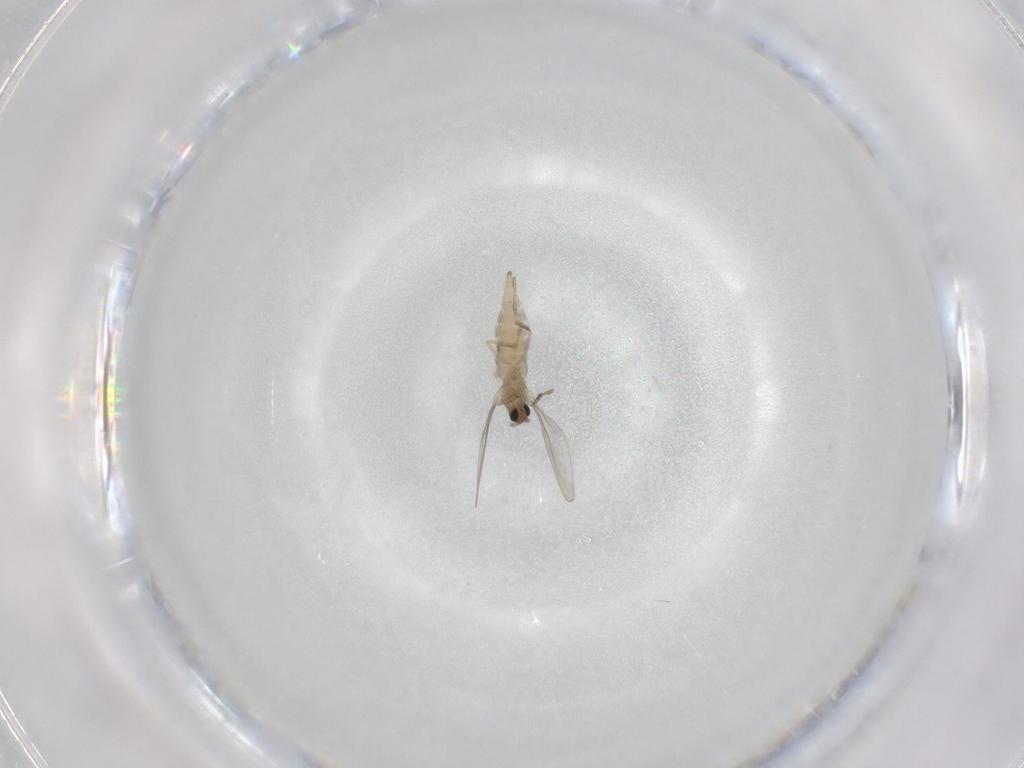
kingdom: Animalia
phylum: Arthropoda
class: Insecta
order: Diptera
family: Cecidomyiidae
